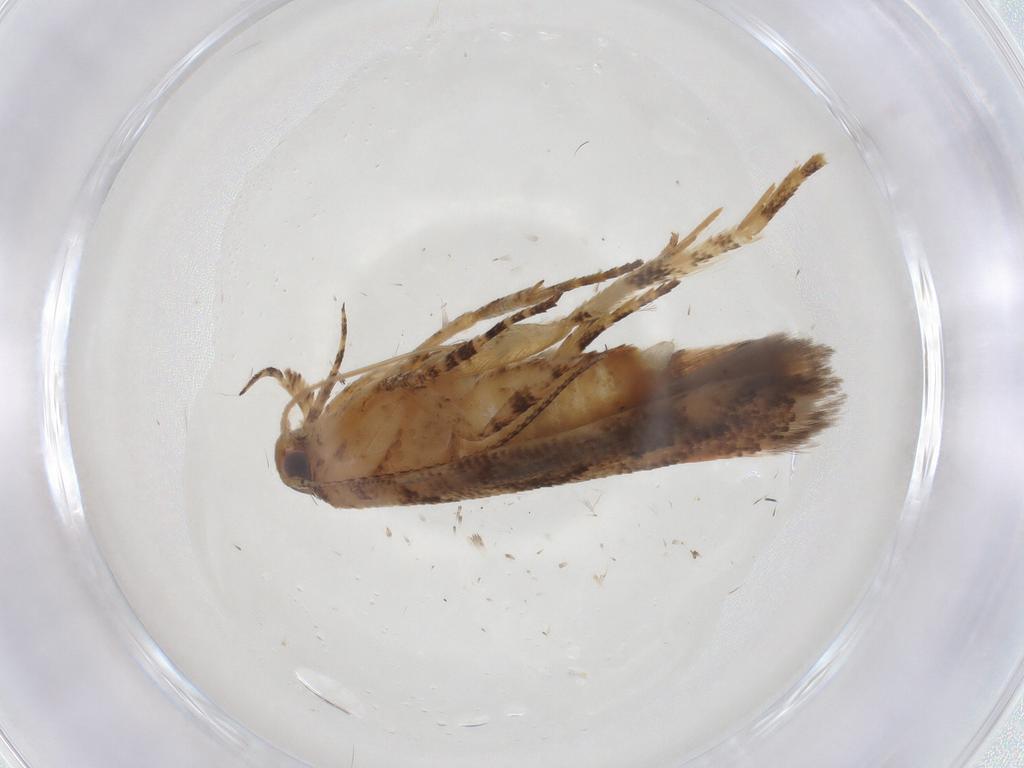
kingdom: Animalia
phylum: Arthropoda
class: Insecta
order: Lepidoptera
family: Gelechiidae
